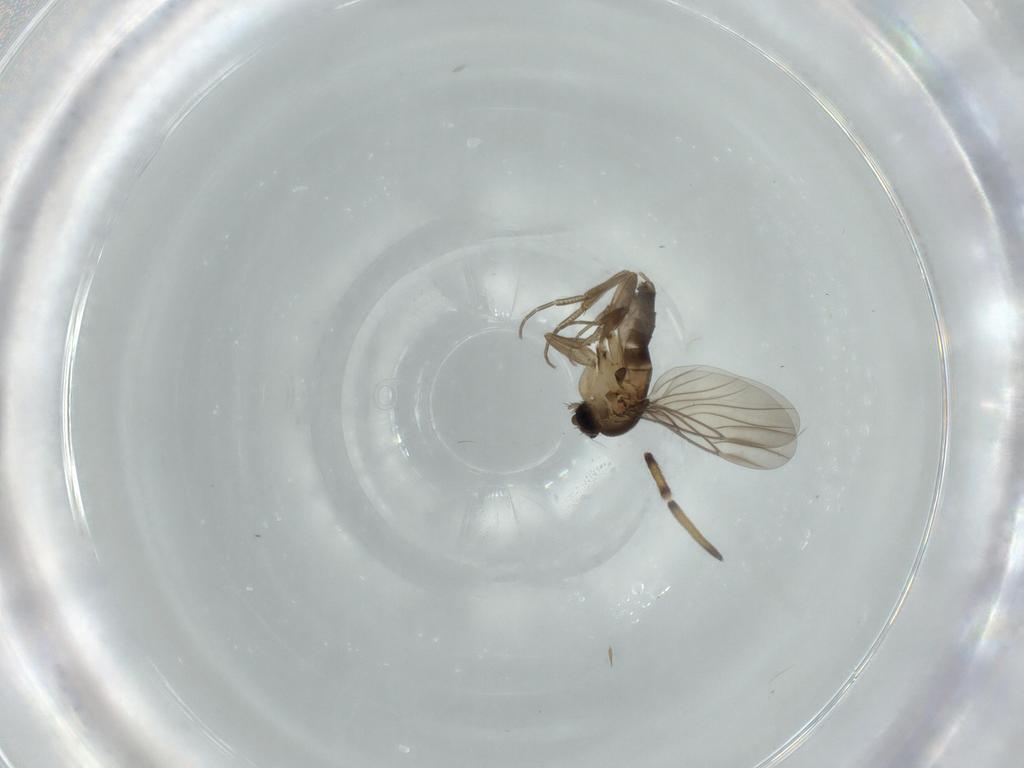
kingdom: Animalia
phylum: Arthropoda
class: Insecta
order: Diptera
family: Phoridae
